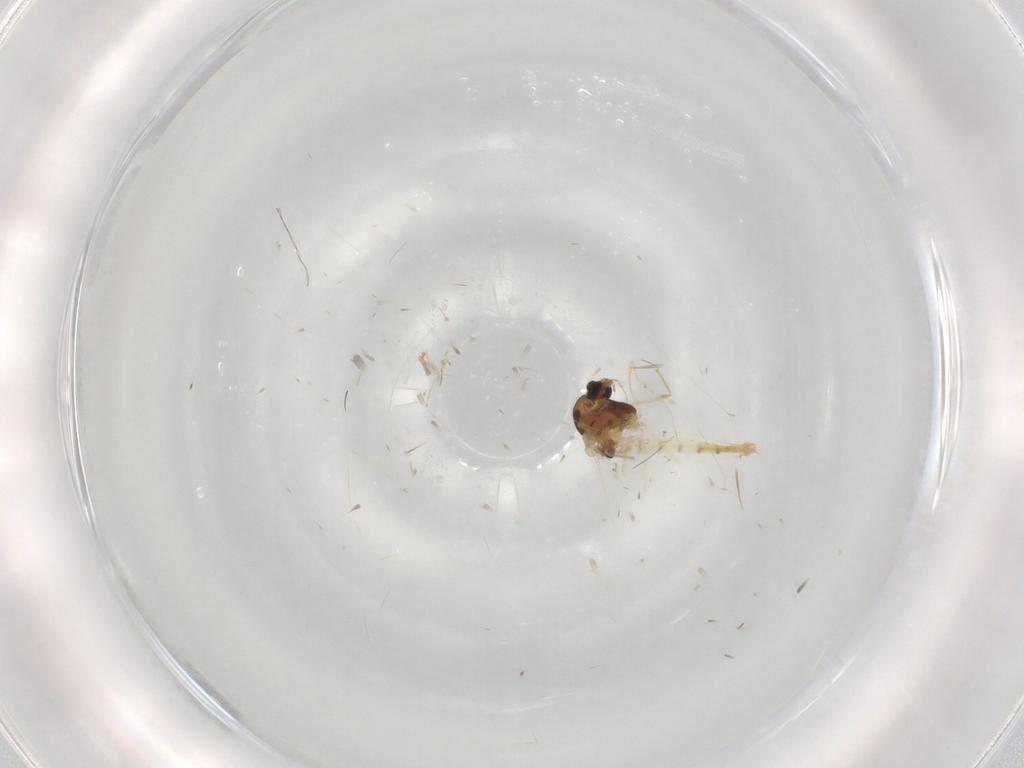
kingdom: Animalia
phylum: Arthropoda
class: Insecta
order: Diptera
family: Chironomidae
